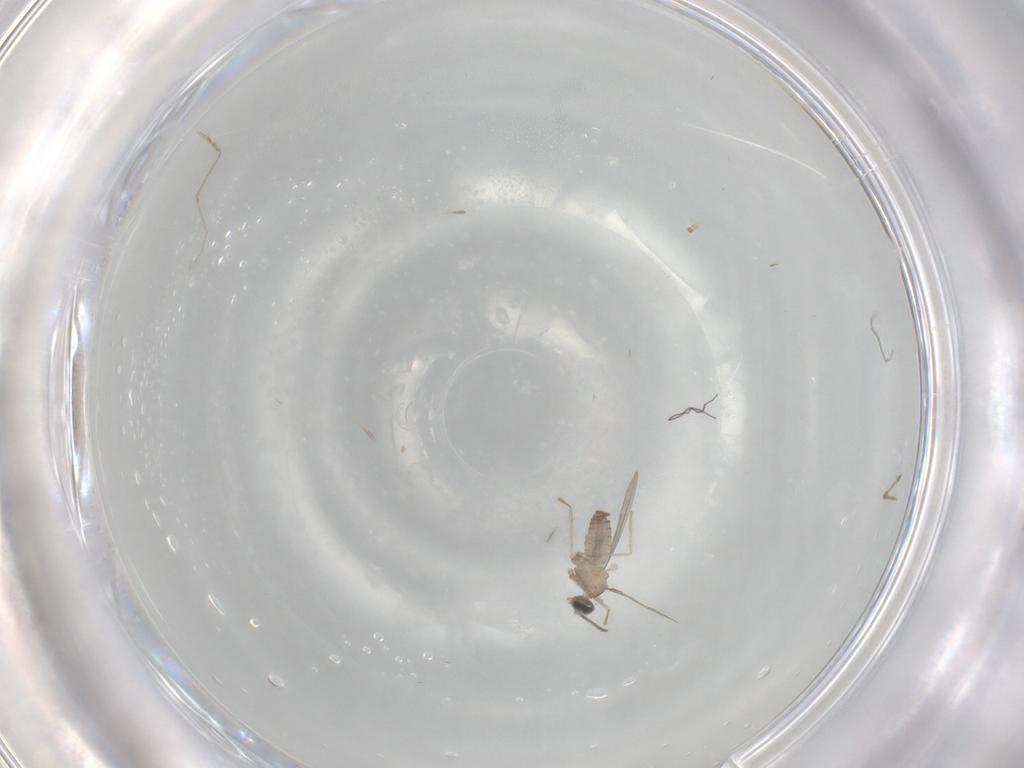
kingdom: Animalia
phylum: Arthropoda
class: Insecta
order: Diptera
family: Cecidomyiidae
